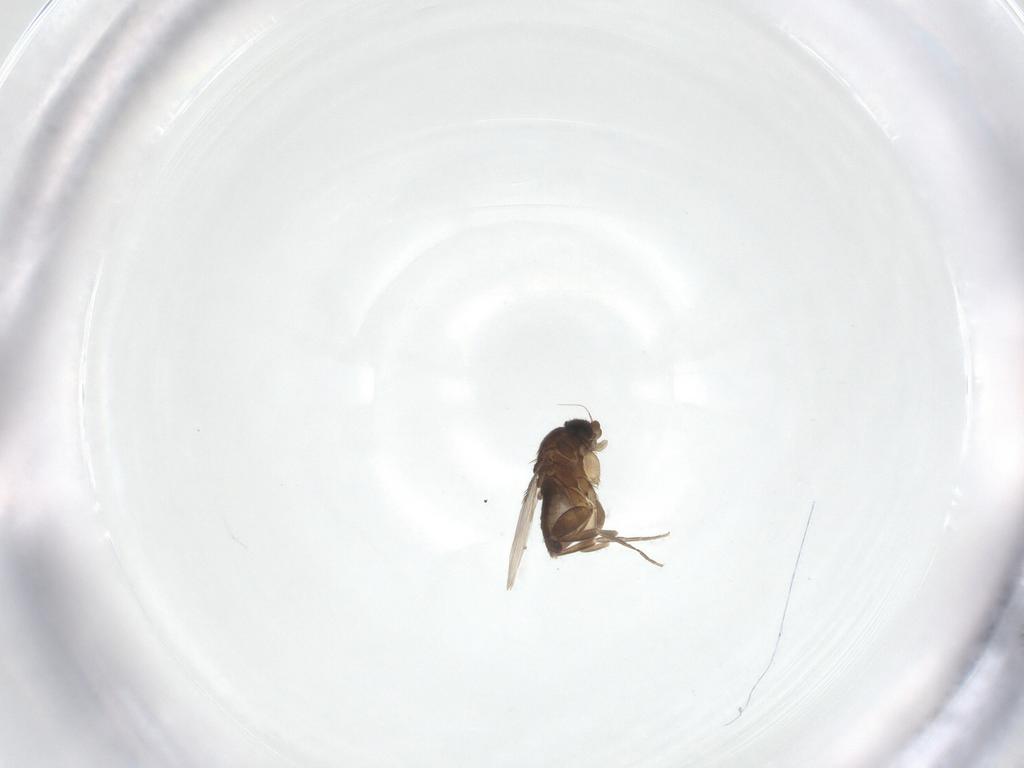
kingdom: Animalia
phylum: Arthropoda
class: Insecta
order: Diptera
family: Phoridae
